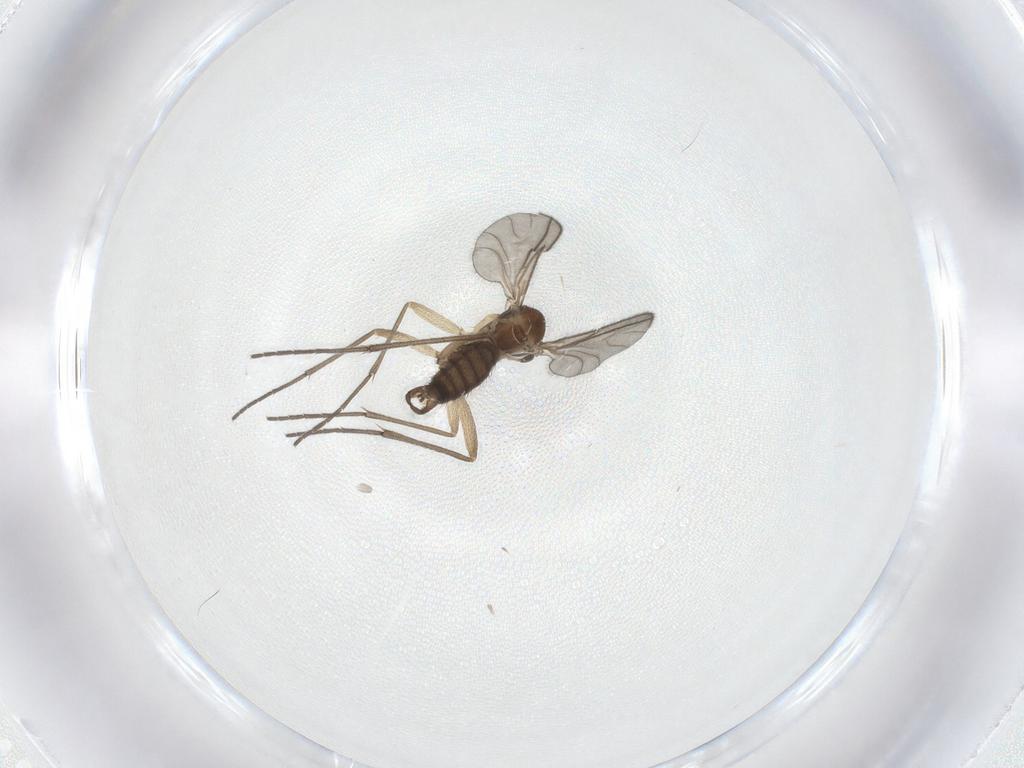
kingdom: Animalia
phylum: Arthropoda
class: Insecta
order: Diptera
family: Sciaridae
